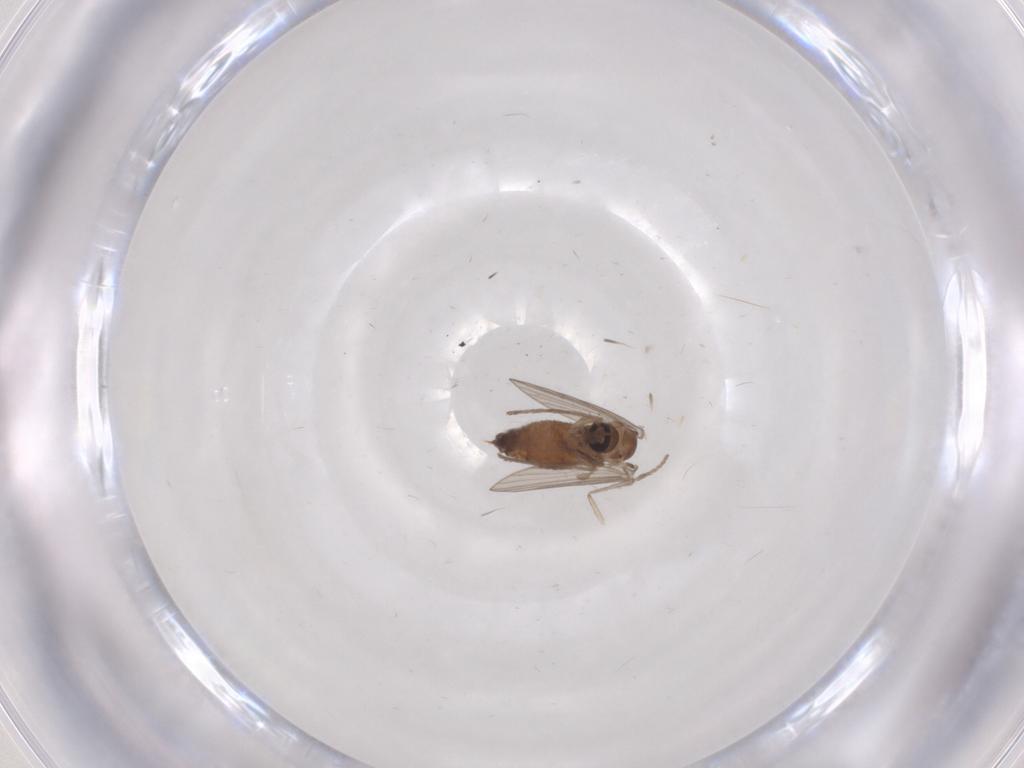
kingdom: Animalia
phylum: Arthropoda
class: Insecta
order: Diptera
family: Psychodidae
